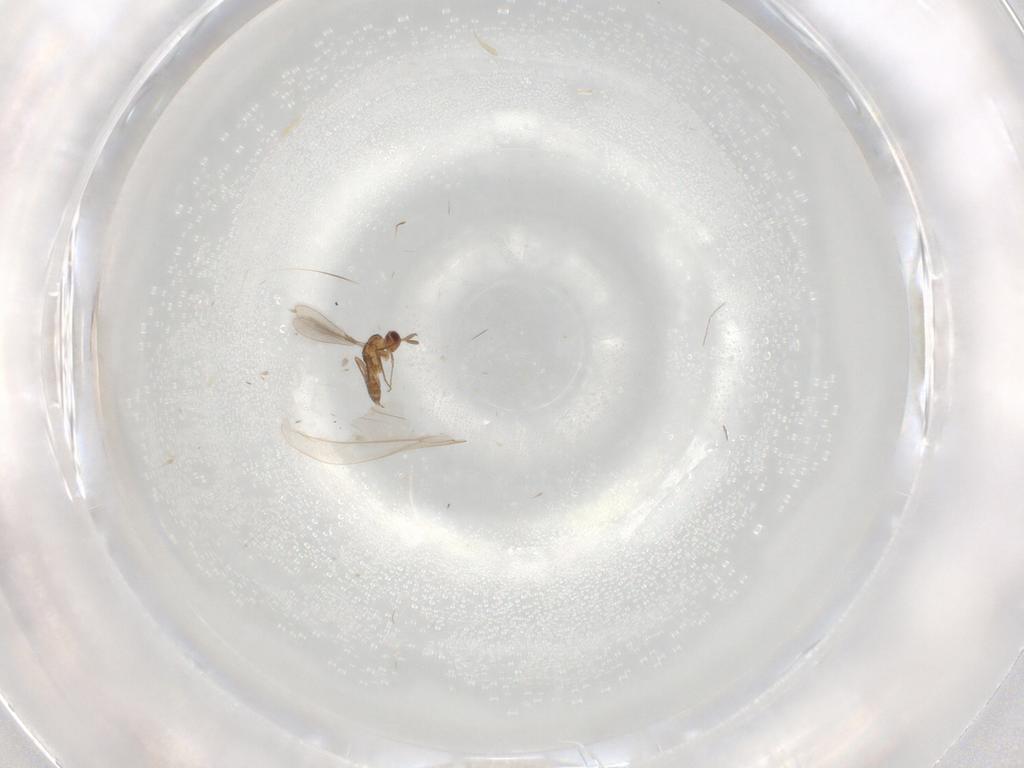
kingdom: Animalia
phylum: Arthropoda
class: Insecta
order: Hymenoptera
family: Mymaridae
